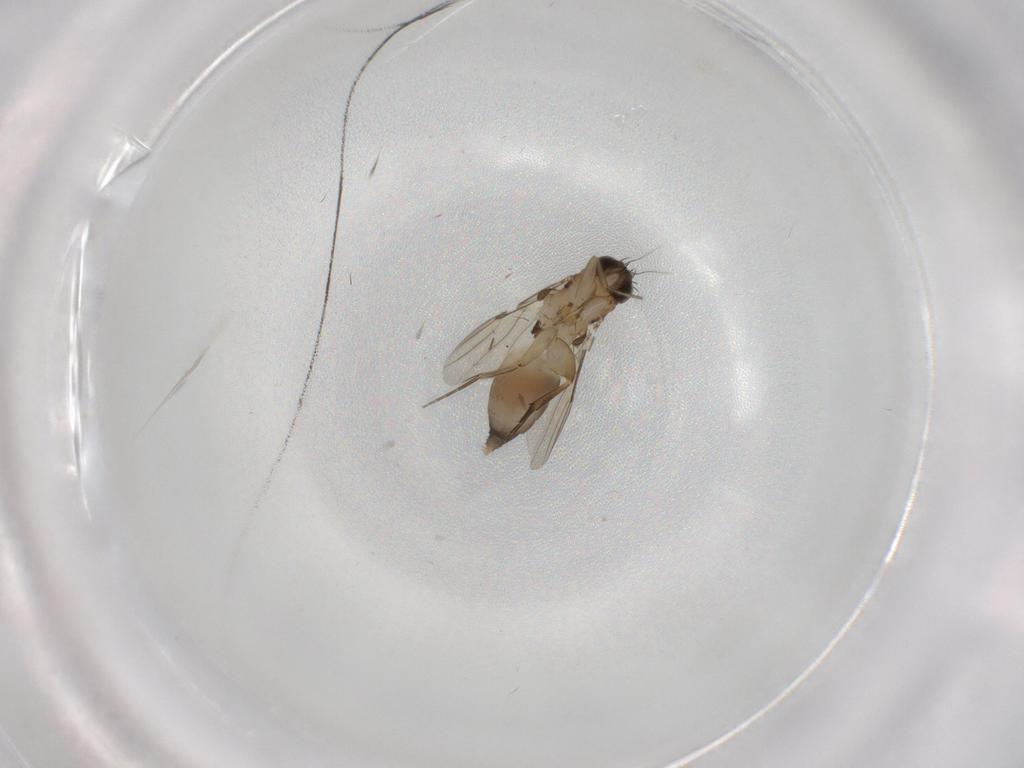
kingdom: Animalia
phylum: Arthropoda
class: Insecta
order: Diptera
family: Phoridae
